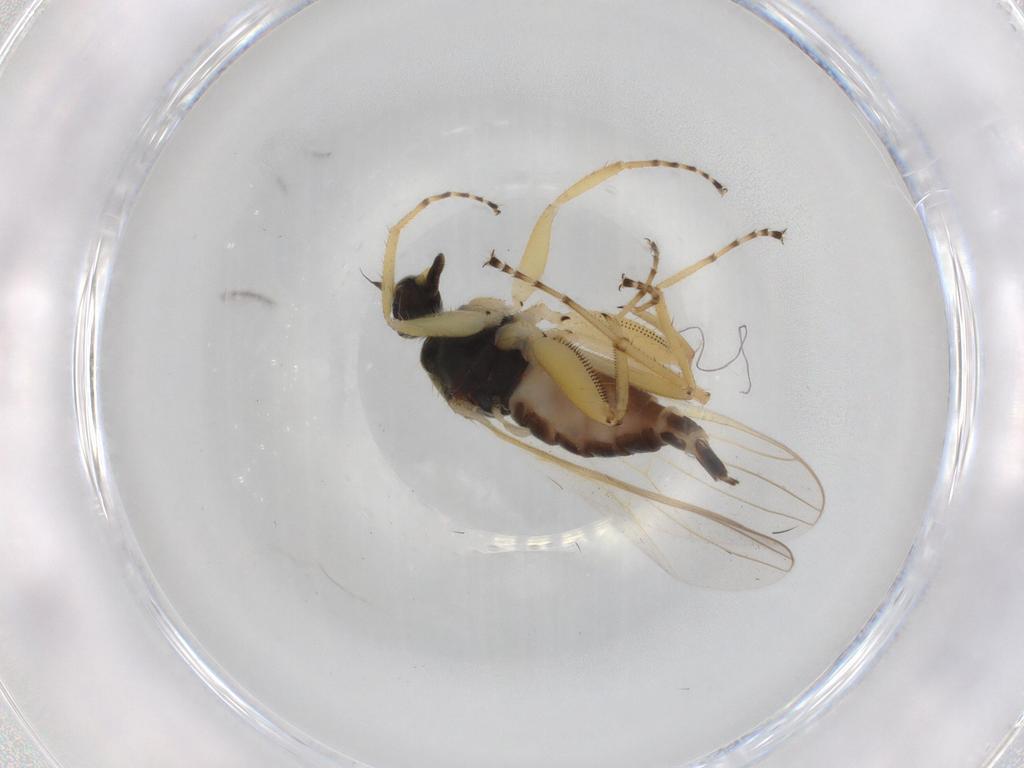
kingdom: Animalia
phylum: Arthropoda
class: Insecta
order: Diptera
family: Hybotidae
